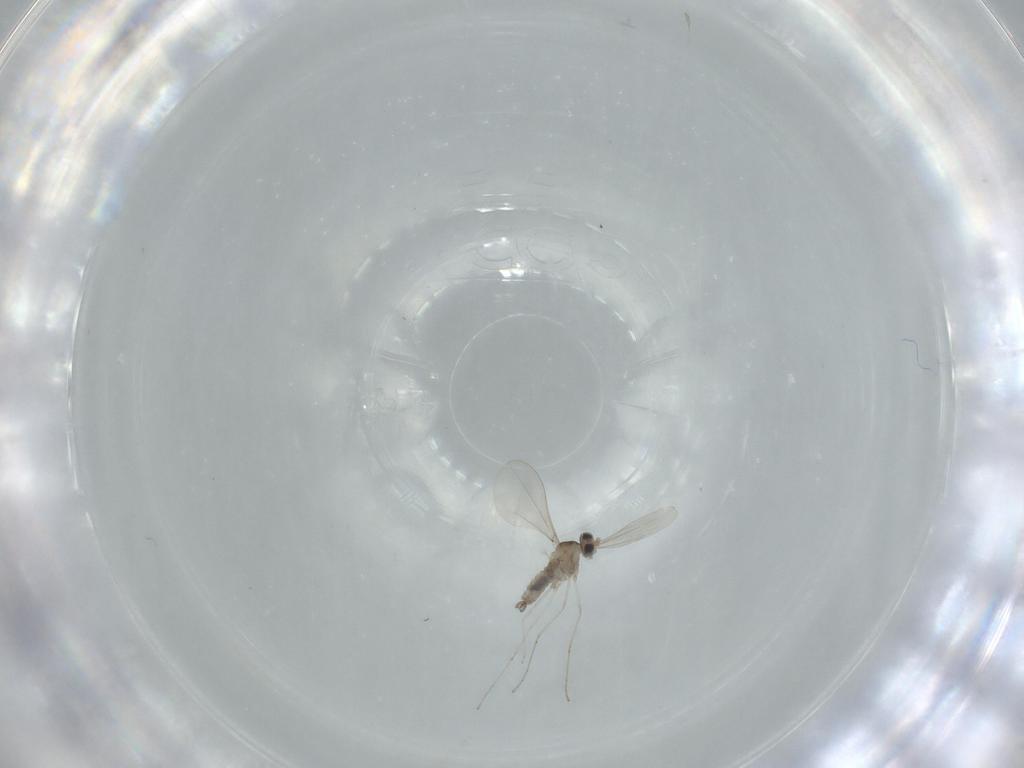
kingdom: Animalia
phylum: Arthropoda
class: Insecta
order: Diptera
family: Cecidomyiidae
